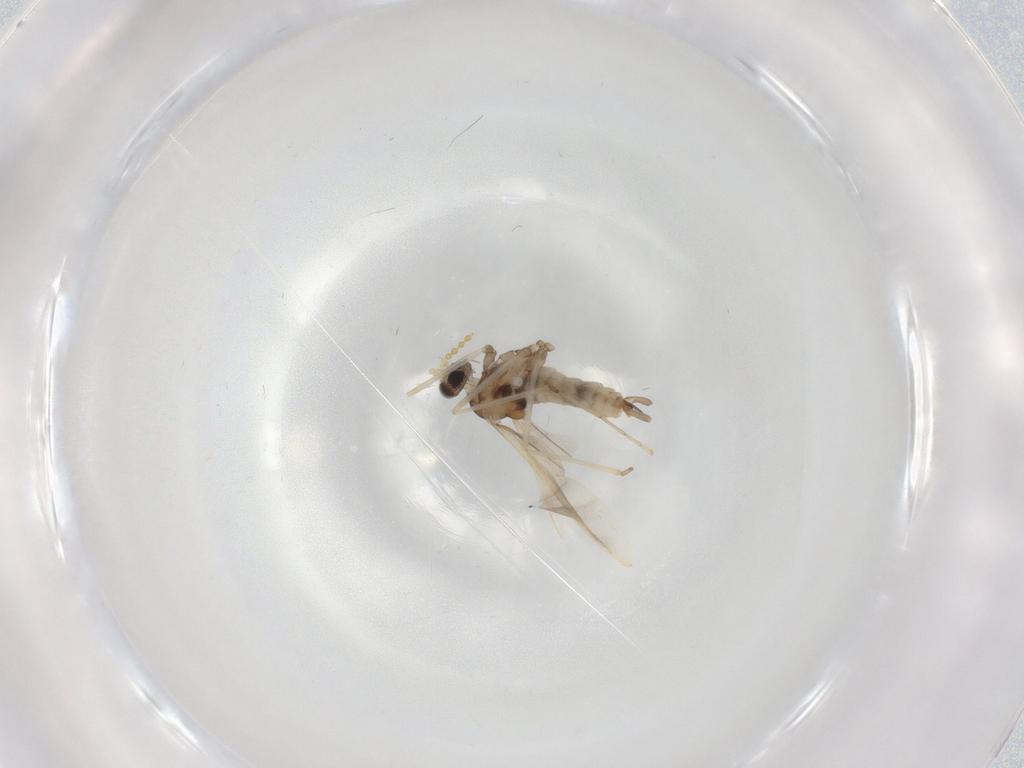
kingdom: Animalia
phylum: Arthropoda
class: Insecta
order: Diptera
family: Cecidomyiidae
